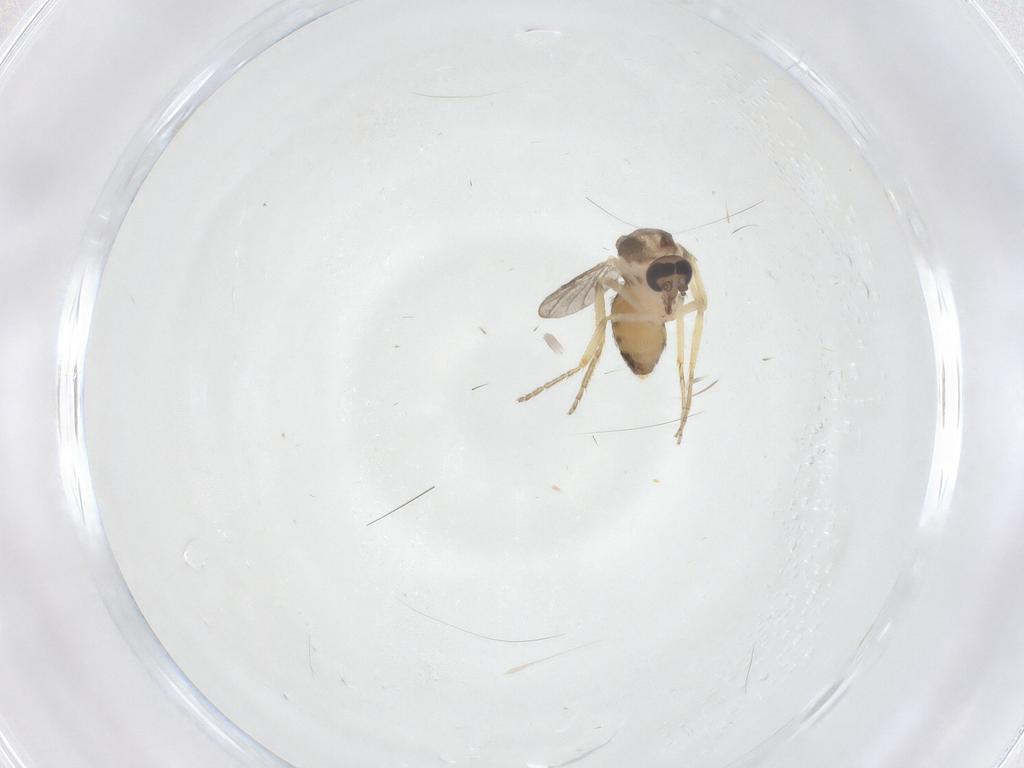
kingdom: Animalia
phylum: Arthropoda
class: Insecta
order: Diptera
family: Ceratopogonidae
